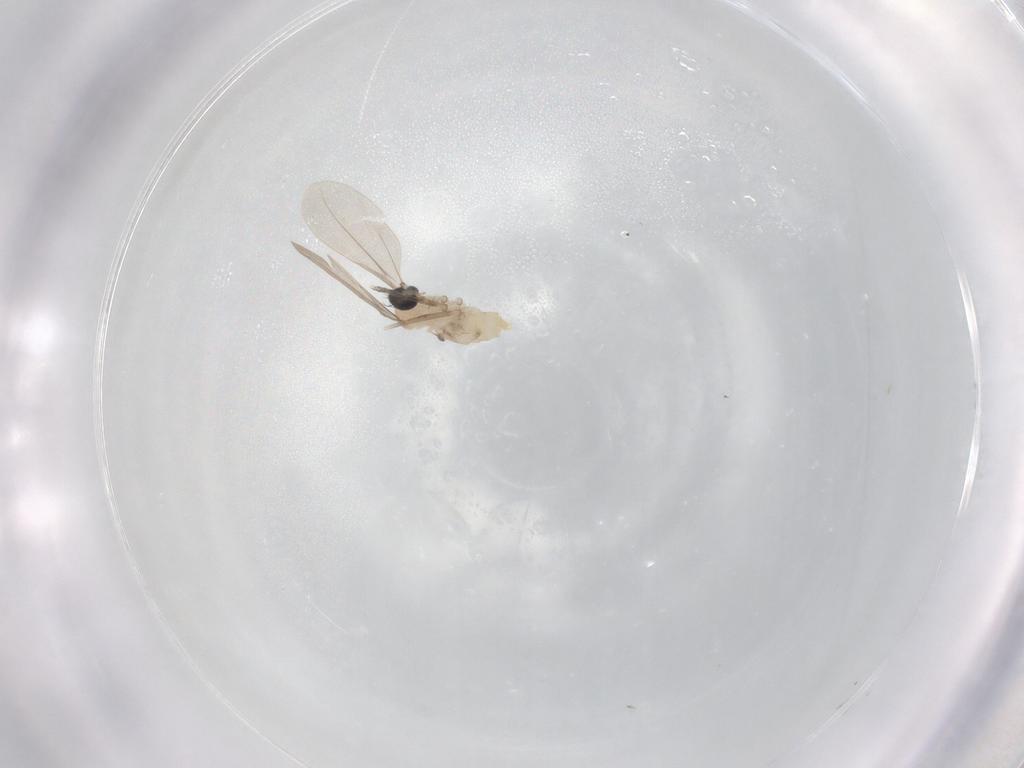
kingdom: Animalia
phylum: Arthropoda
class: Insecta
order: Diptera
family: Cecidomyiidae
